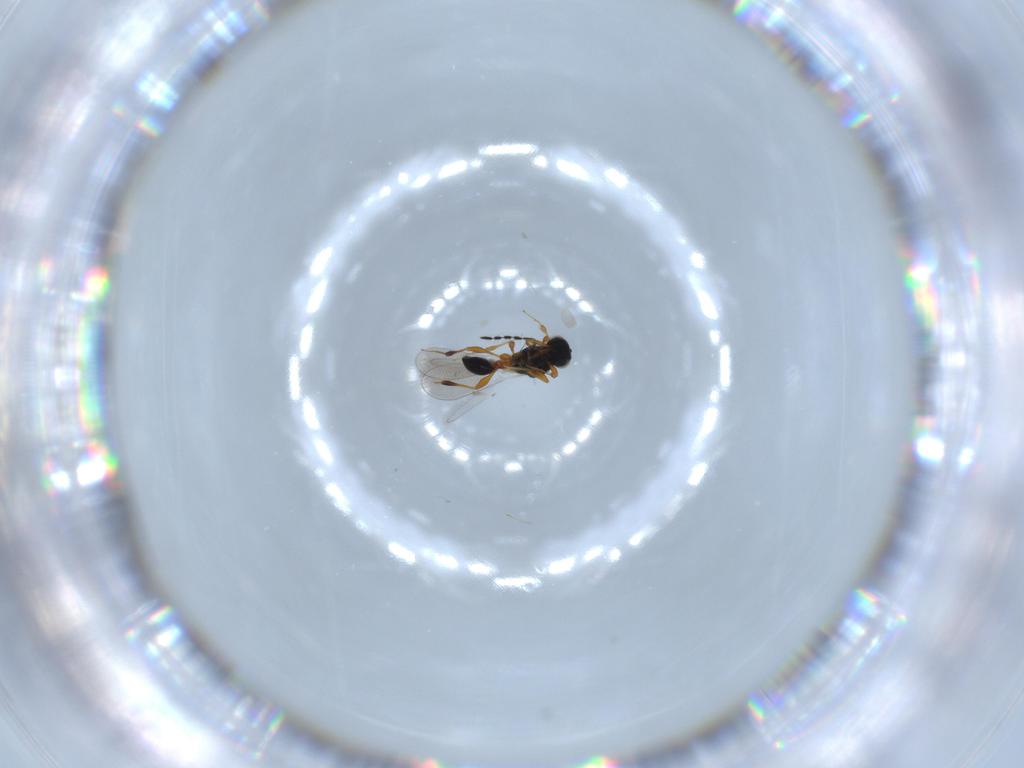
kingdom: Animalia
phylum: Arthropoda
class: Insecta
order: Hymenoptera
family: Platygastridae
